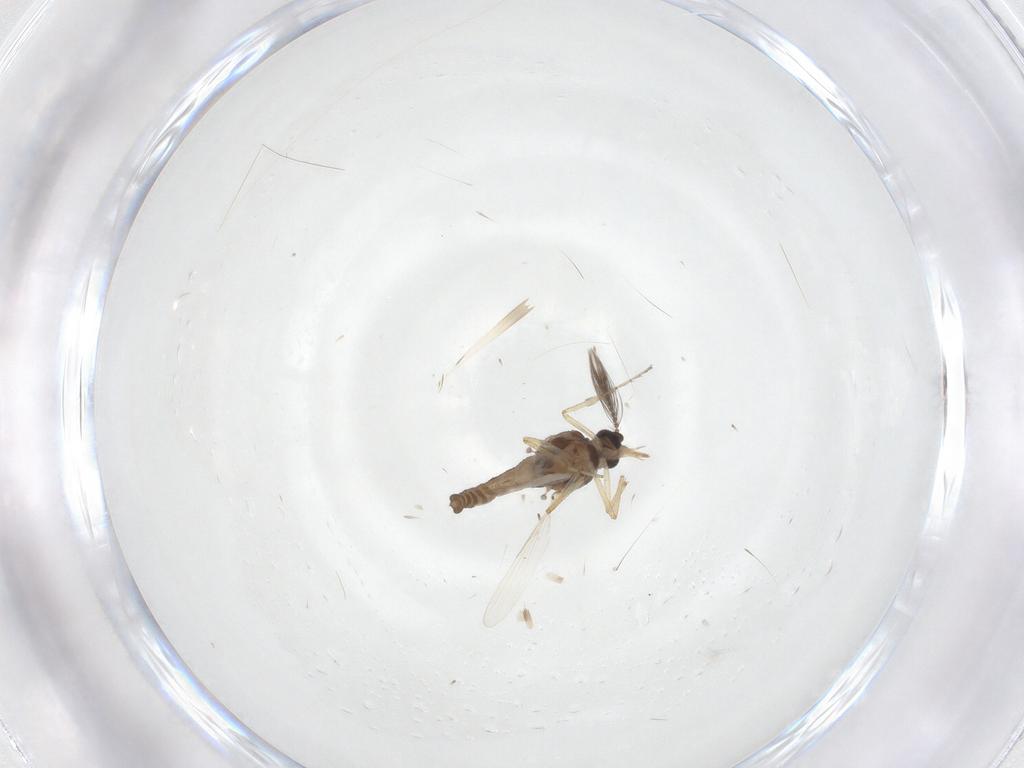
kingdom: Animalia
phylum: Arthropoda
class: Insecta
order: Diptera
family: Ceratopogonidae
